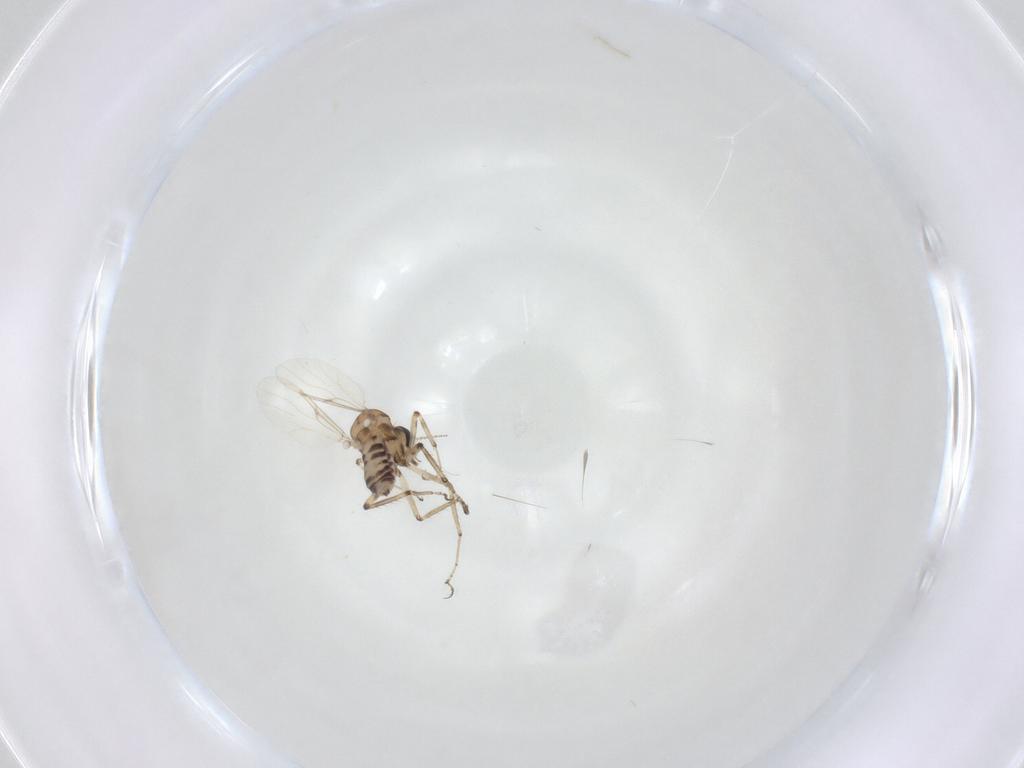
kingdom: Animalia
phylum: Arthropoda
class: Insecta
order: Diptera
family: Ceratopogonidae
